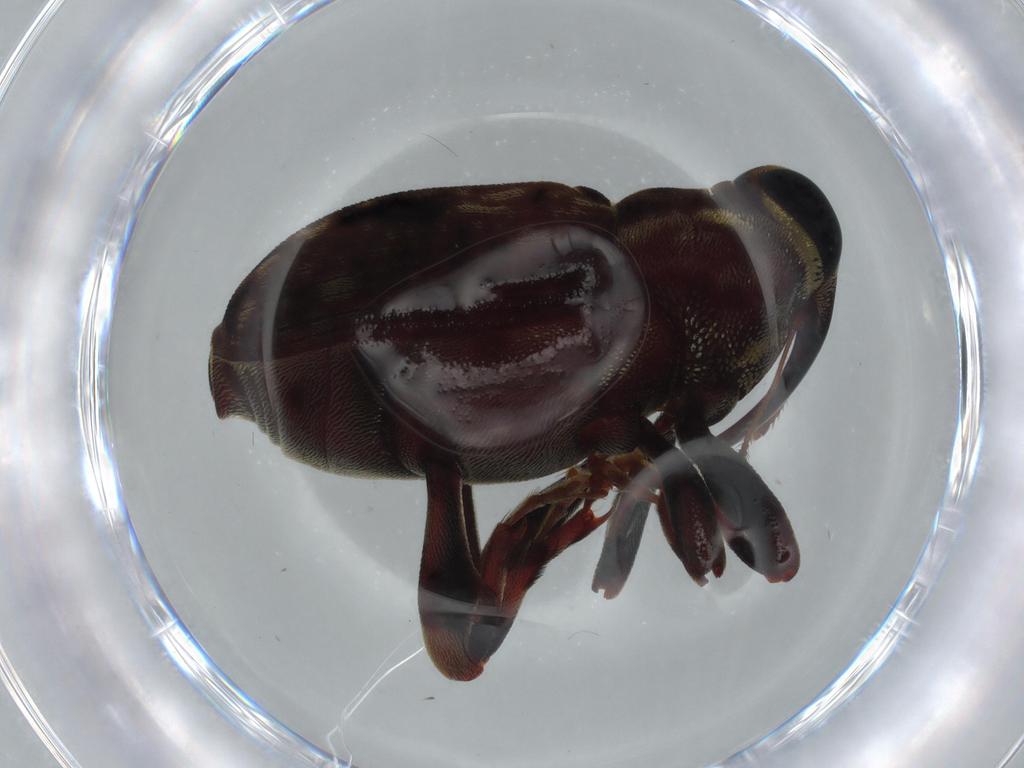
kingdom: Animalia
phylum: Arthropoda
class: Insecta
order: Coleoptera
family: Curculionidae
